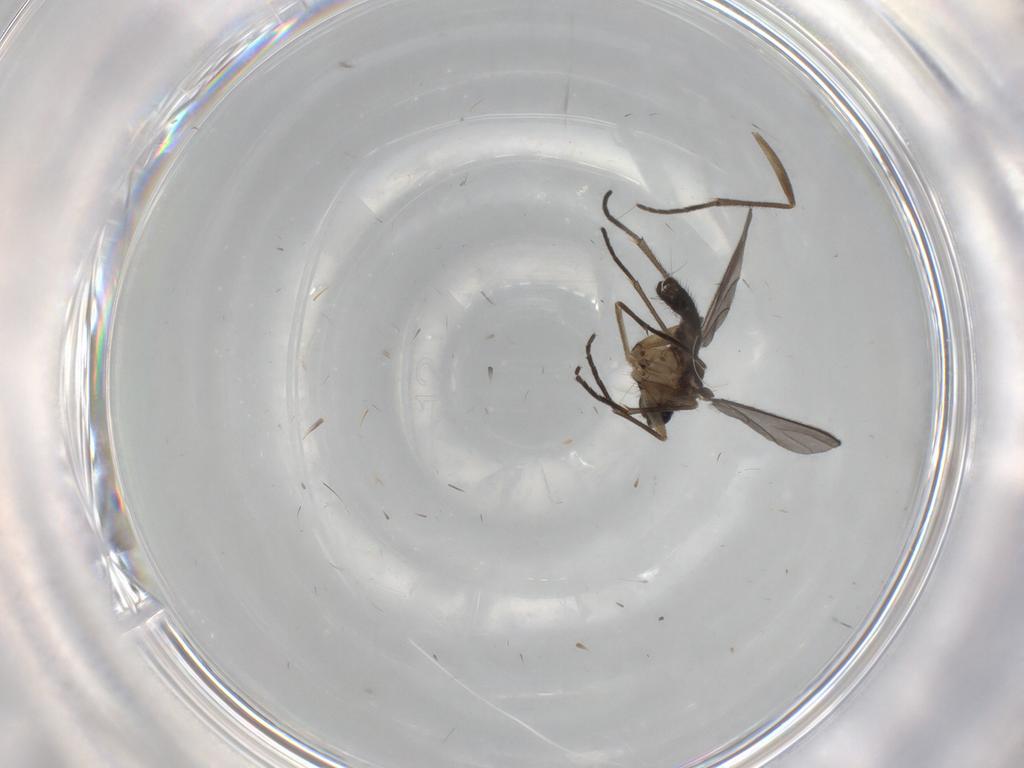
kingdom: Animalia
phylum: Arthropoda
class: Insecta
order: Diptera
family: Sciaridae
